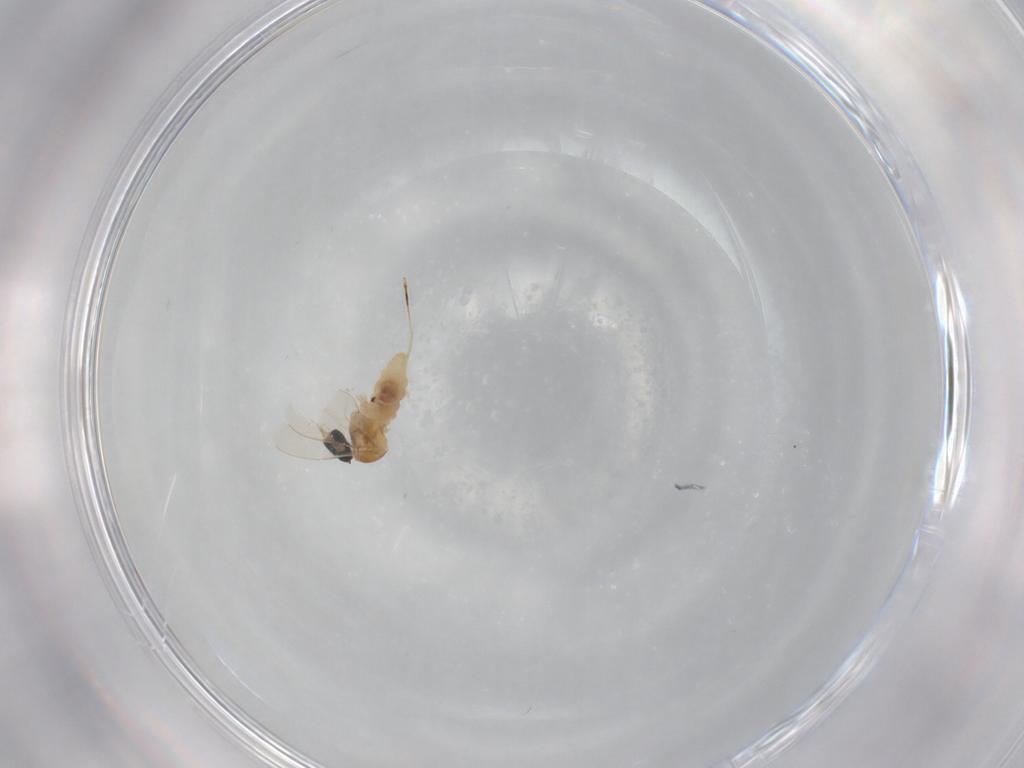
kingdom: Animalia
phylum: Arthropoda
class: Insecta
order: Diptera
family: Cecidomyiidae
